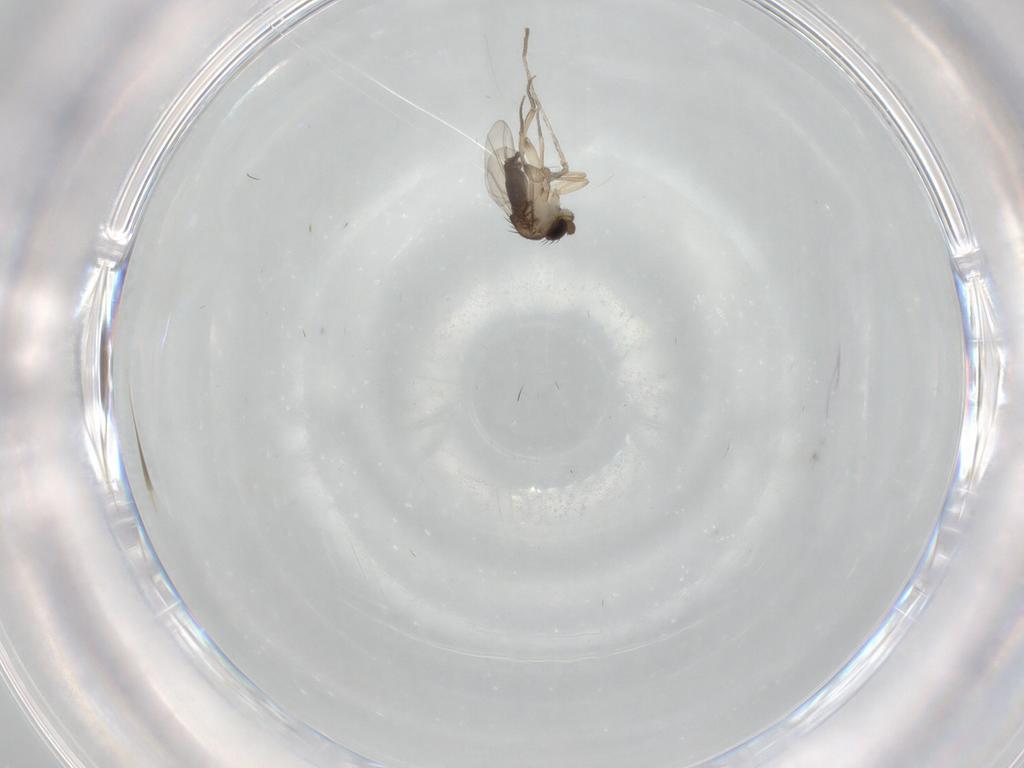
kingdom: Animalia
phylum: Arthropoda
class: Insecta
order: Diptera
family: Phoridae
